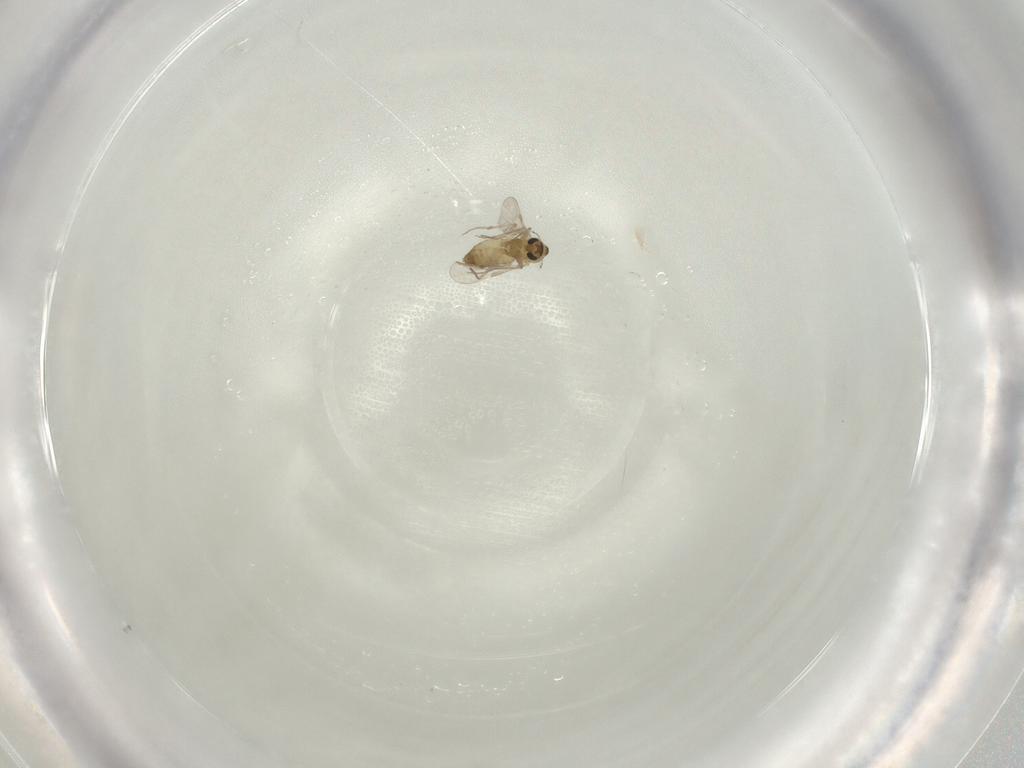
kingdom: Animalia
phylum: Arthropoda
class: Insecta
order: Diptera
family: Chironomidae
